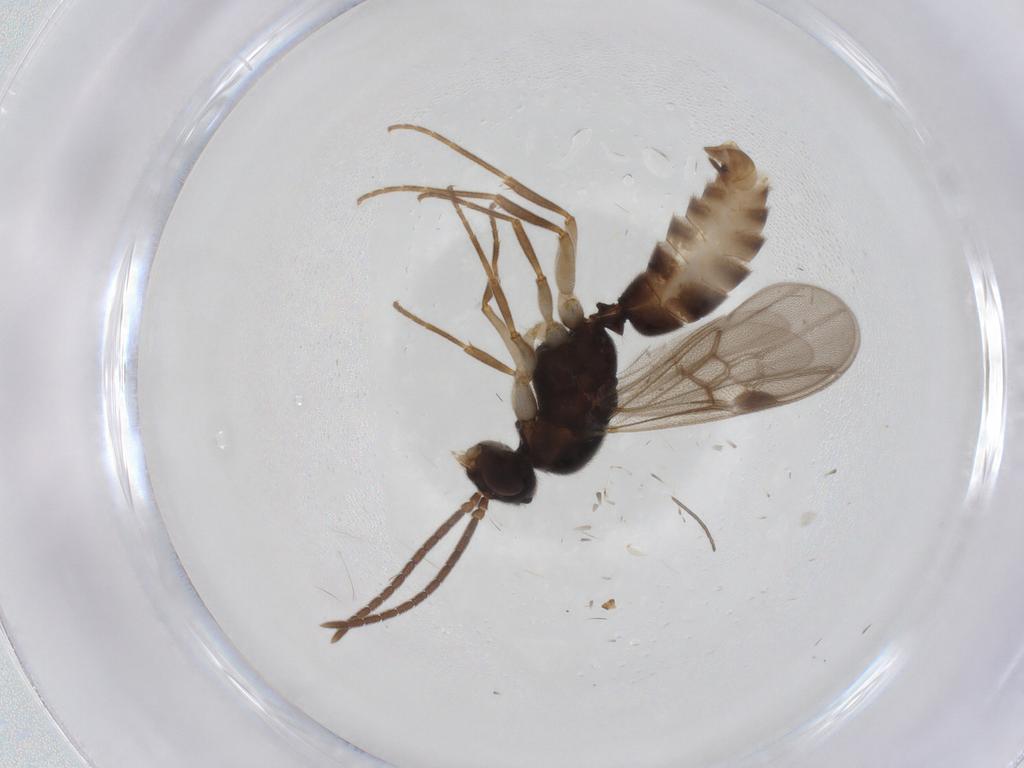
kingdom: Animalia
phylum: Arthropoda
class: Insecta
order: Hymenoptera
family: Formicidae
